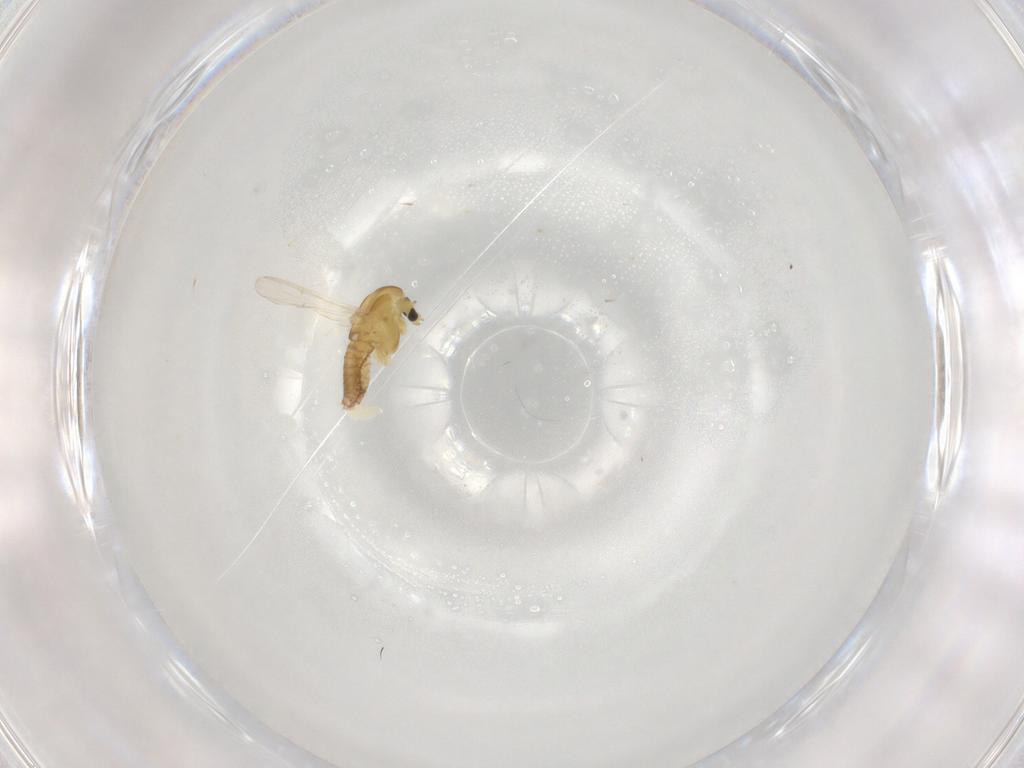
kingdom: Animalia
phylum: Arthropoda
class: Insecta
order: Diptera
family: Chironomidae
